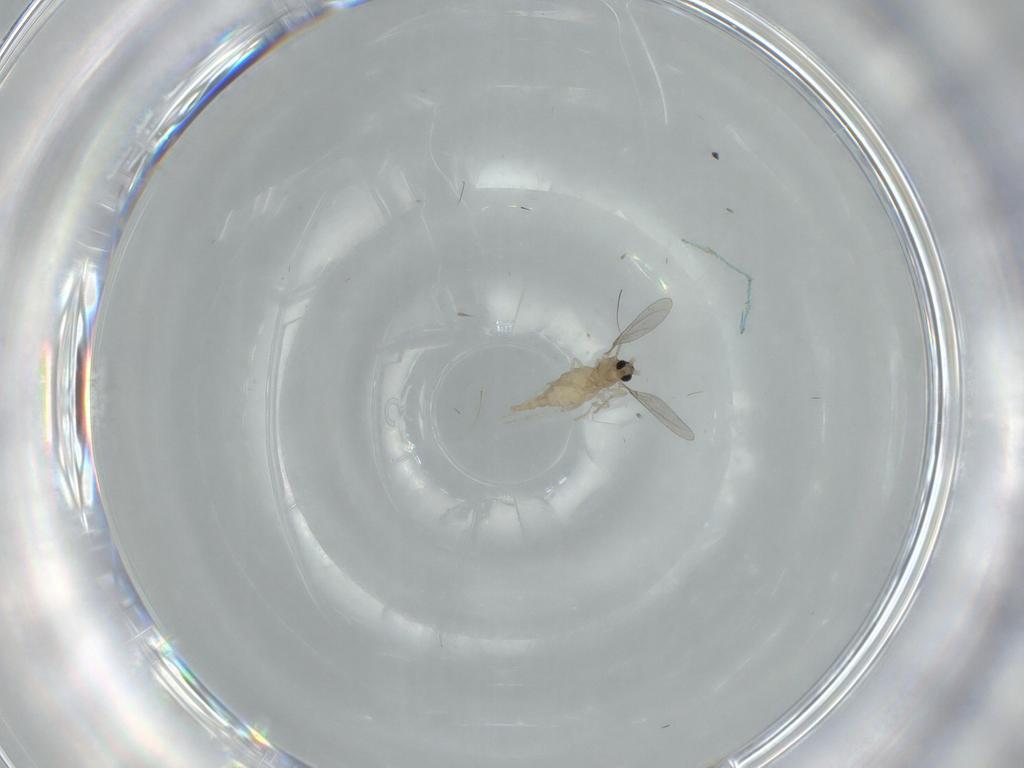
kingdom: Animalia
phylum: Arthropoda
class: Insecta
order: Diptera
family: Cecidomyiidae
